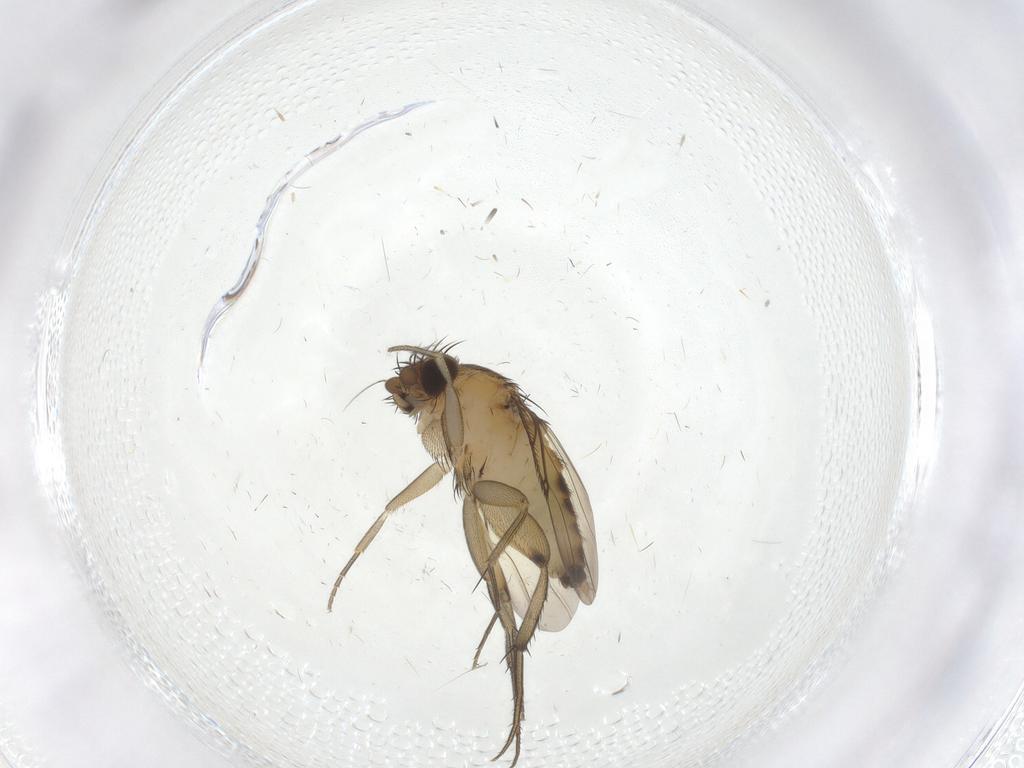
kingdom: Animalia
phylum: Arthropoda
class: Insecta
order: Diptera
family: Phoridae
